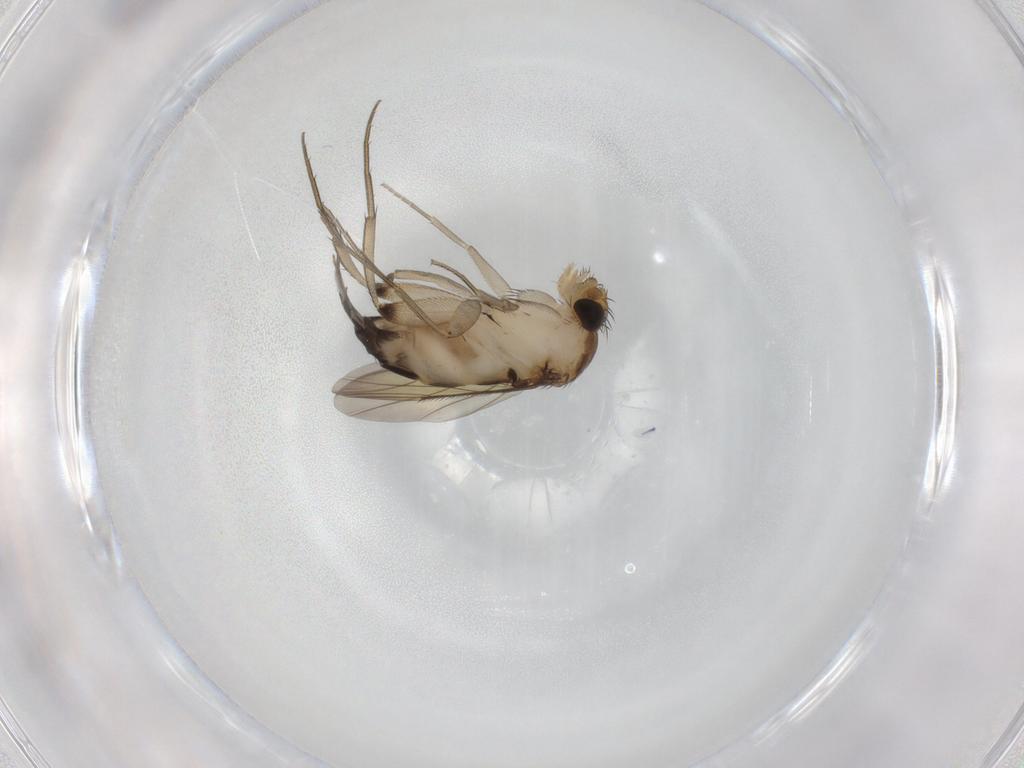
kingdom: Animalia
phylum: Arthropoda
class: Insecta
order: Diptera
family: Phoridae
